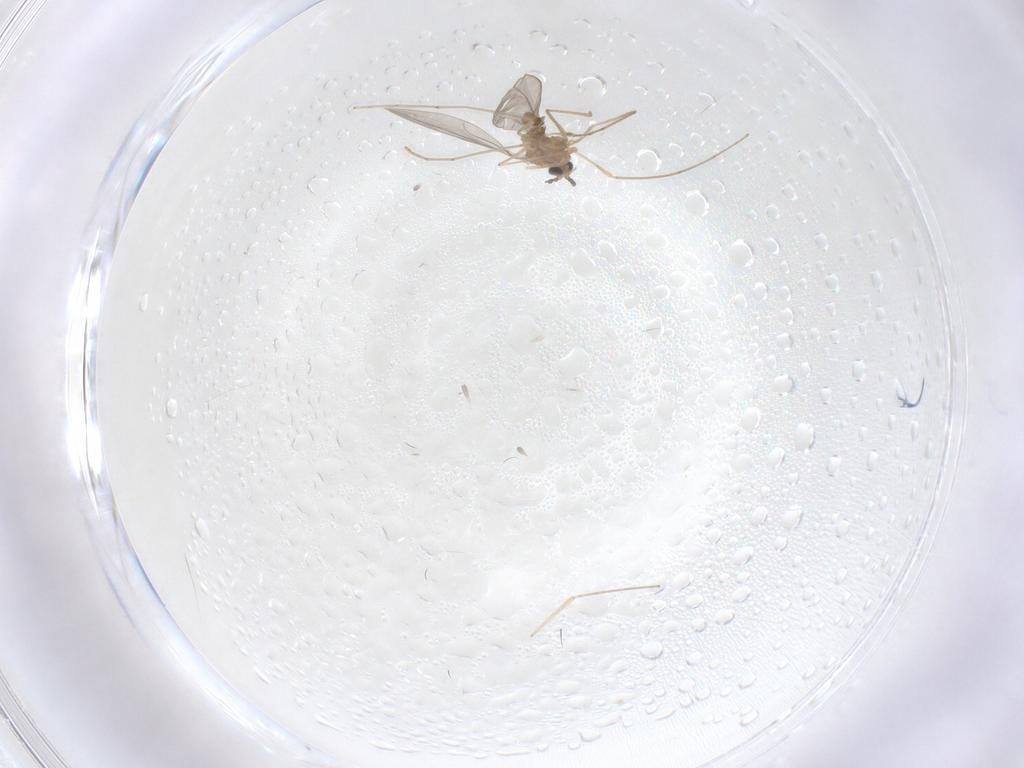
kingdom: Animalia
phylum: Arthropoda
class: Insecta
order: Diptera
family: Cecidomyiidae
